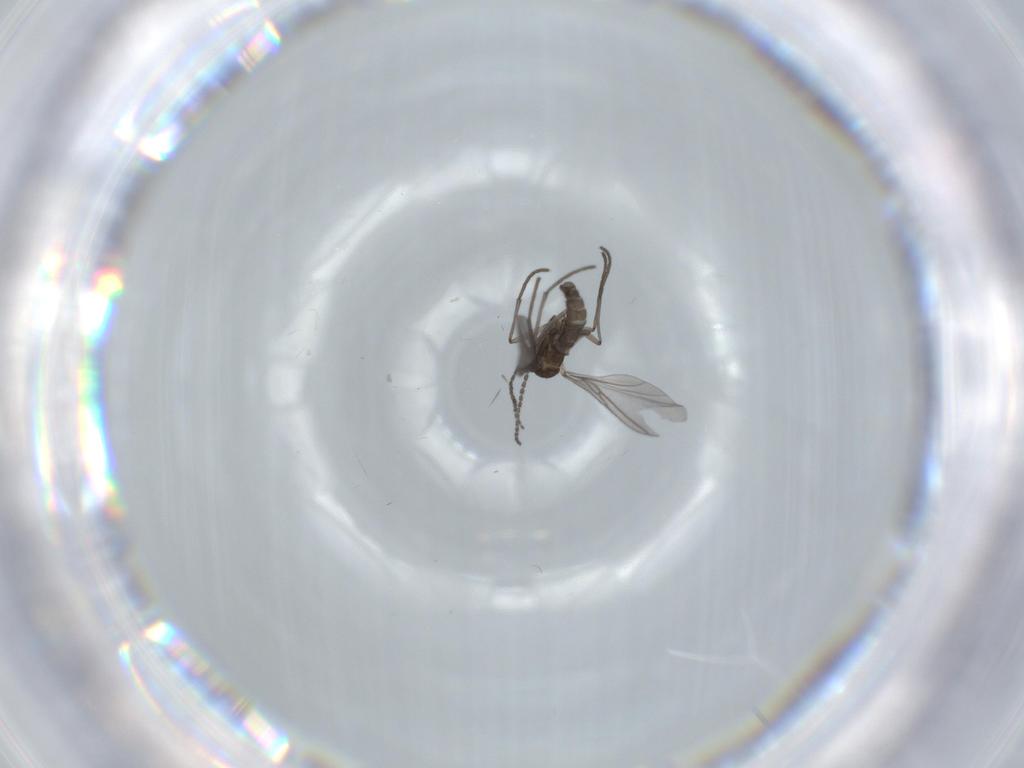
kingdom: Animalia
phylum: Arthropoda
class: Insecta
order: Diptera
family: Sciaridae
